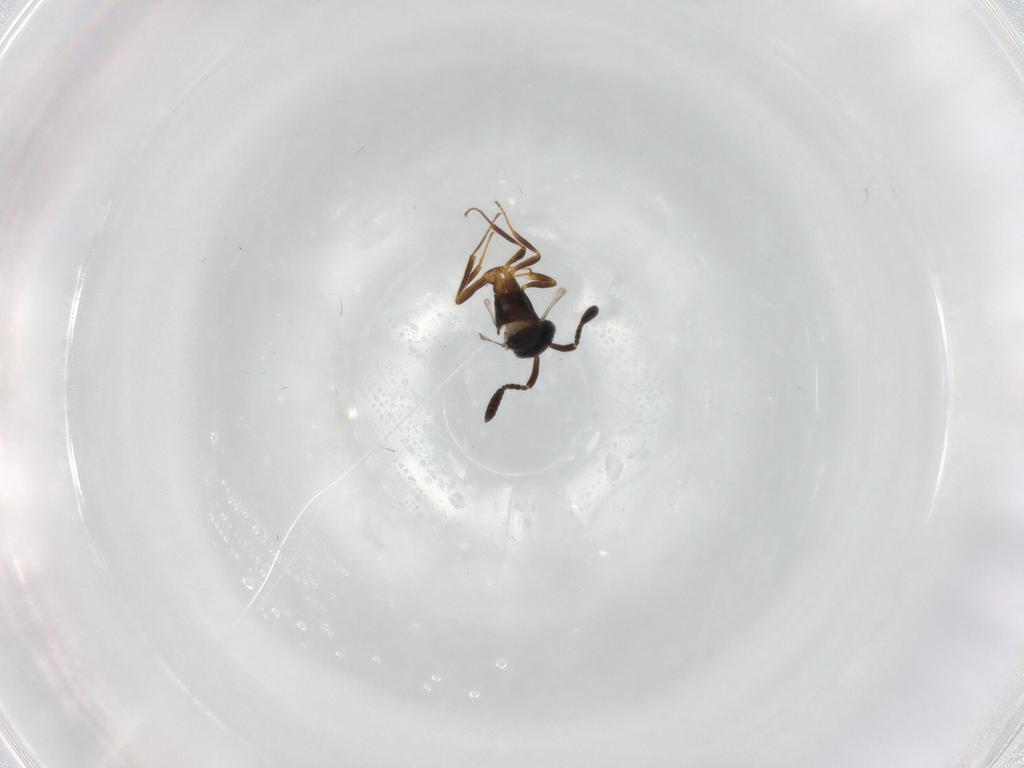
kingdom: Animalia
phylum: Arthropoda
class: Insecta
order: Hymenoptera
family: Scelionidae
